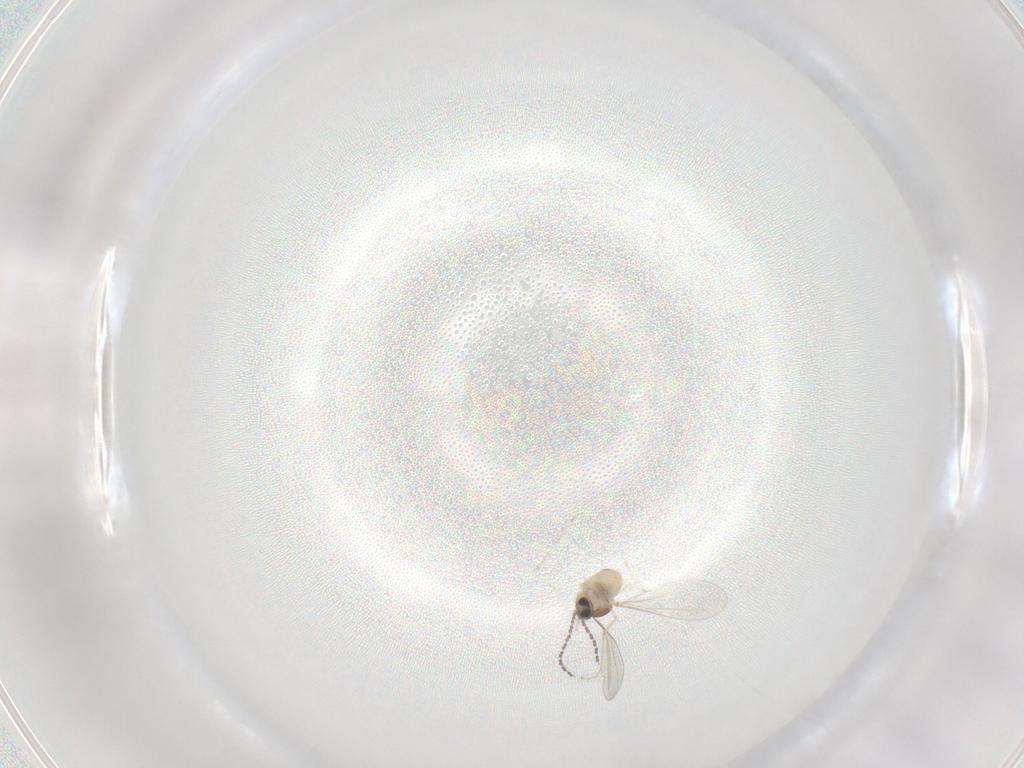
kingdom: Animalia
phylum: Arthropoda
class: Insecta
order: Diptera
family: Cecidomyiidae
